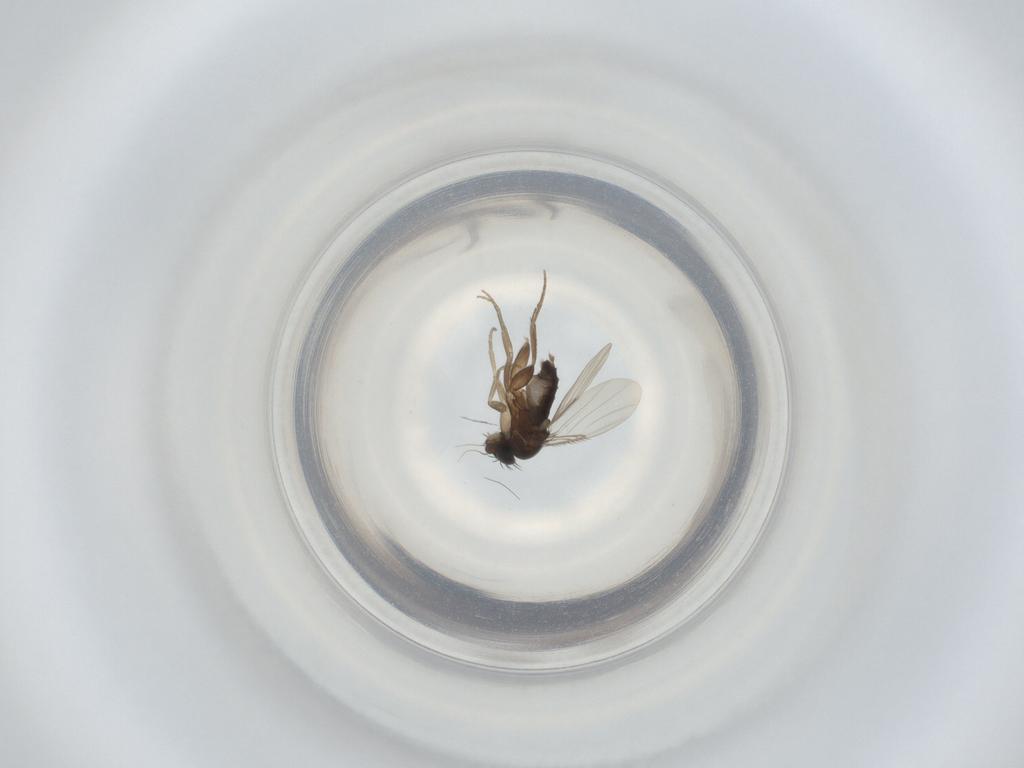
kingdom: Animalia
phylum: Arthropoda
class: Insecta
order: Diptera
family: Phoridae
